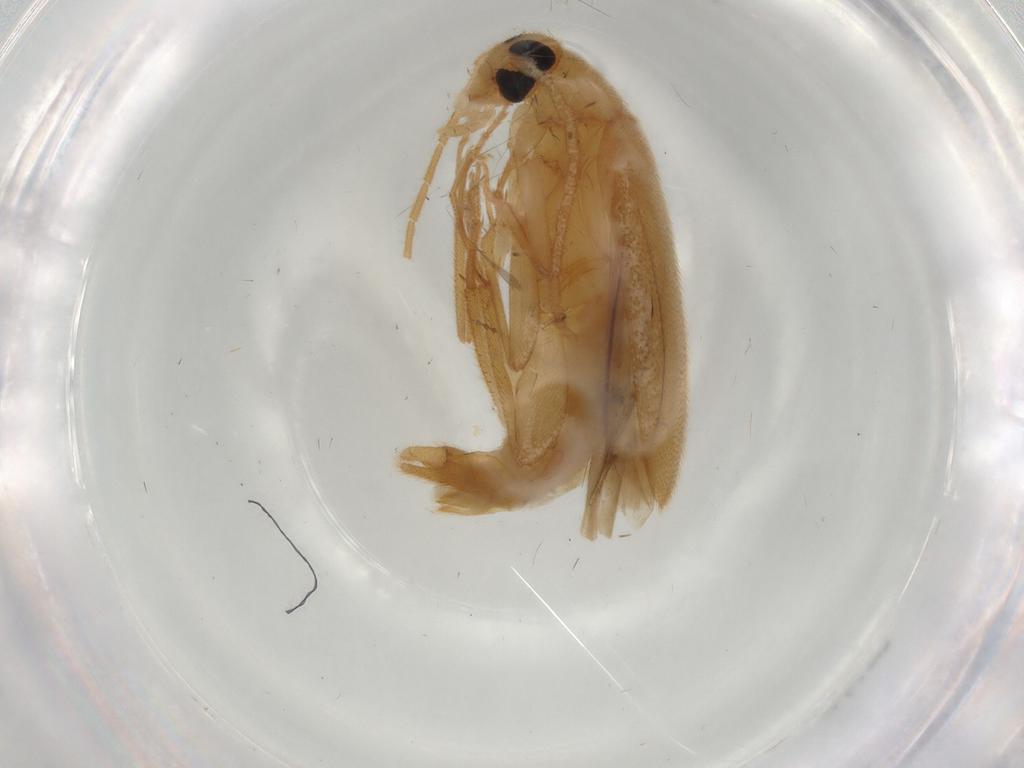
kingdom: Animalia
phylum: Arthropoda
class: Insecta
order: Coleoptera
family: Scraptiidae
